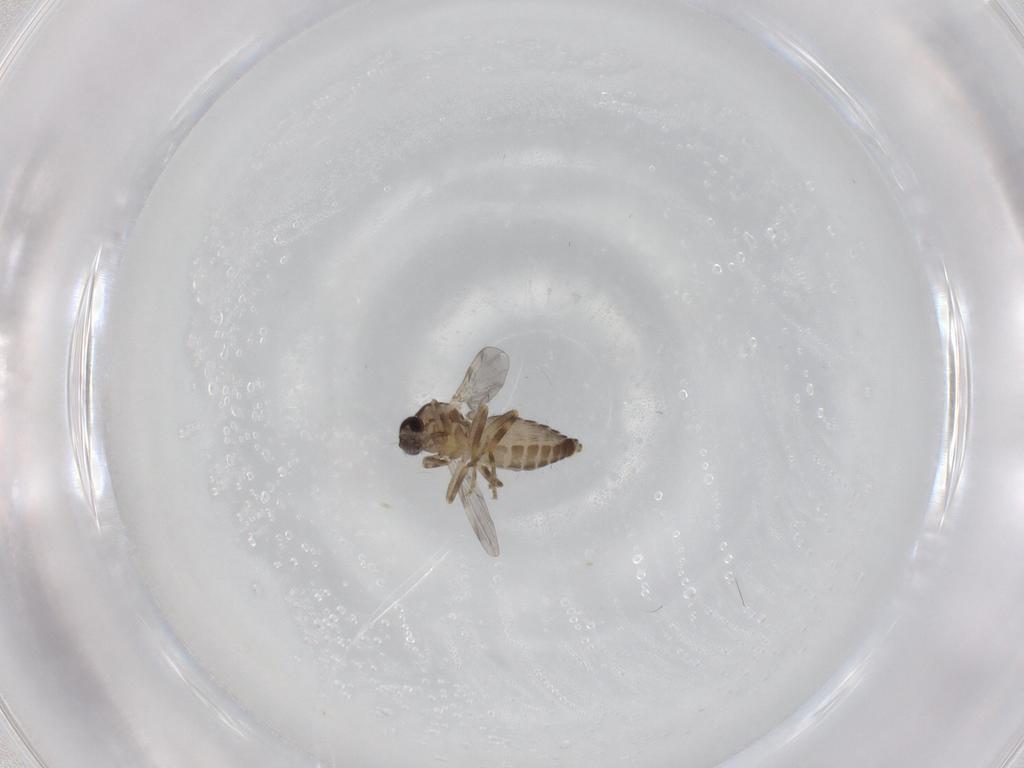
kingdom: Animalia
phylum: Arthropoda
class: Insecta
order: Diptera
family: Ceratopogonidae
